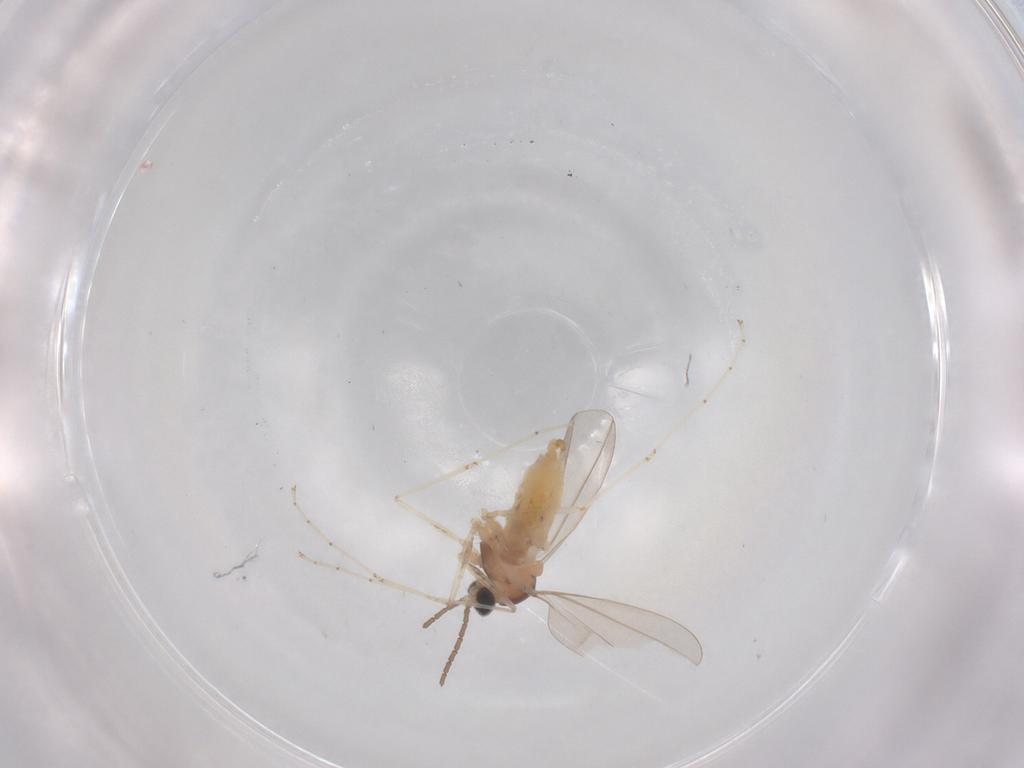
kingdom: Animalia
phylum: Arthropoda
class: Insecta
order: Diptera
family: Cecidomyiidae
